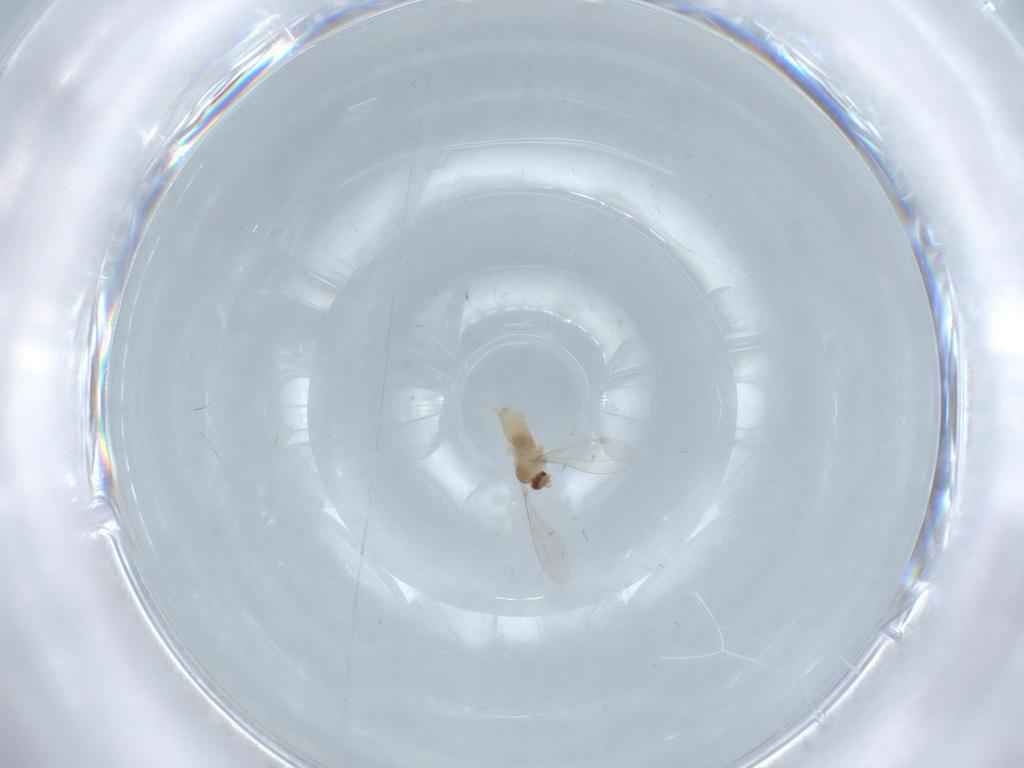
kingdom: Animalia
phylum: Arthropoda
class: Insecta
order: Diptera
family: Cecidomyiidae
